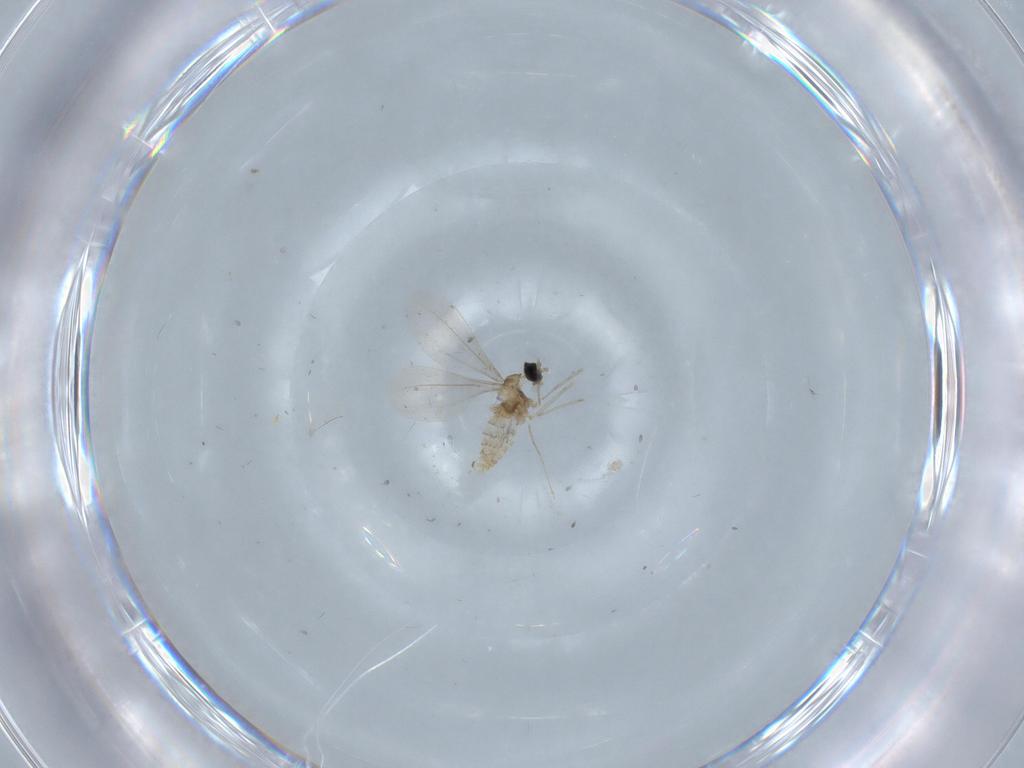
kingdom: Animalia
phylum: Arthropoda
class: Insecta
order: Diptera
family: Cecidomyiidae
